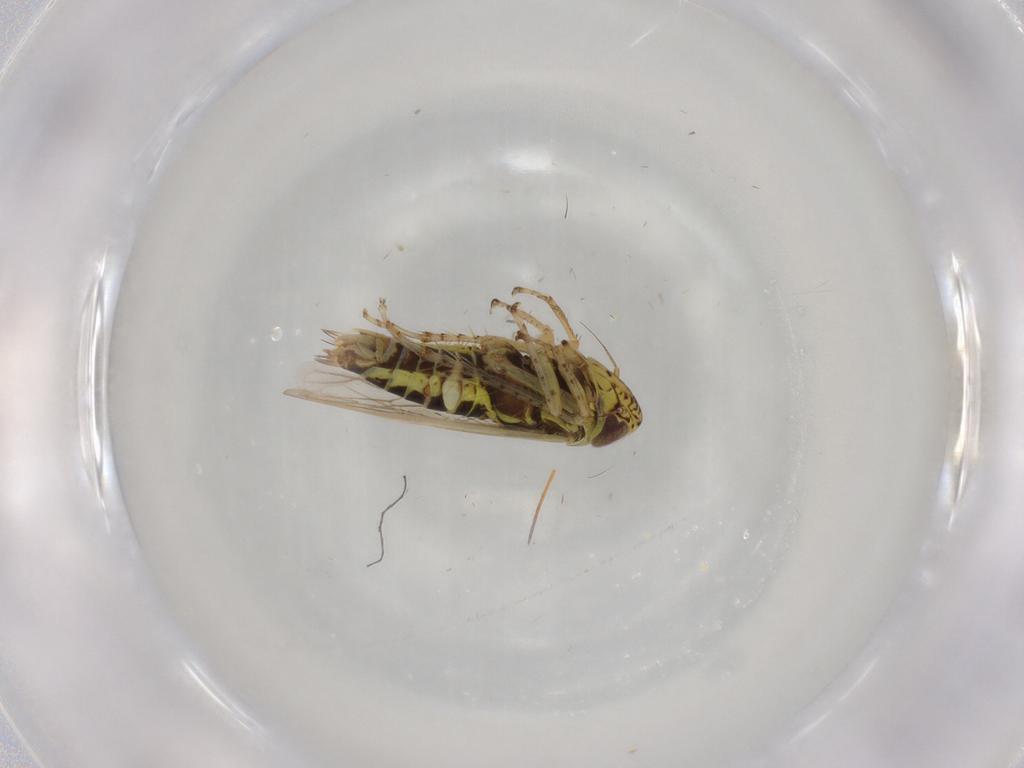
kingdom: Animalia
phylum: Arthropoda
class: Insecta
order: Hemiptera
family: Cicadellidae
